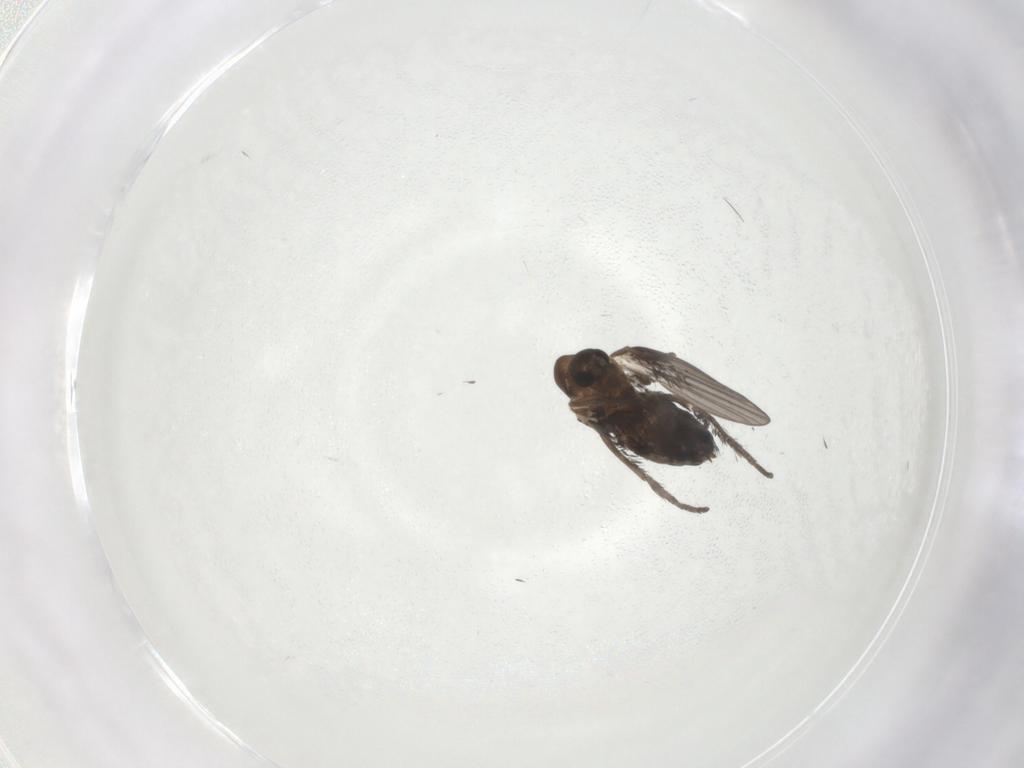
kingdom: Animalia
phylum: Arthropoda
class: Insecta
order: Diptera
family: Psychodidae
